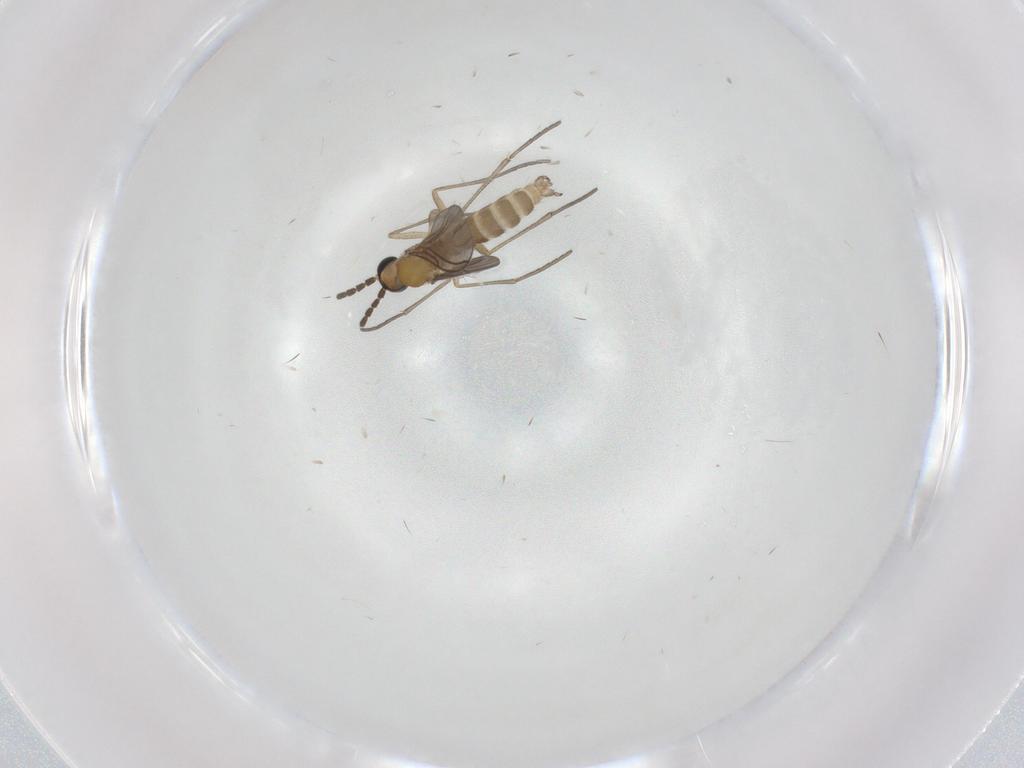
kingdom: Animalia
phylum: Arthropoda
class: Insecta
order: Diptera
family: Sciaridae
